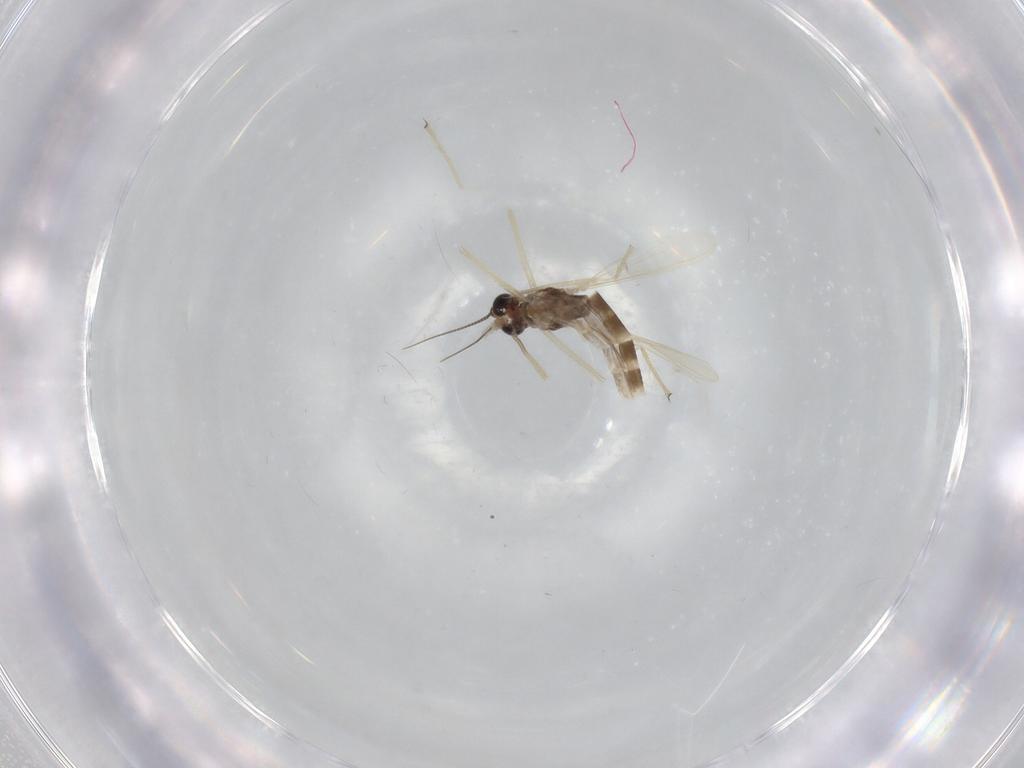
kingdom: Animalia
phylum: Arthropoda
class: Insecta
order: Diptera
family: Chironomidae
